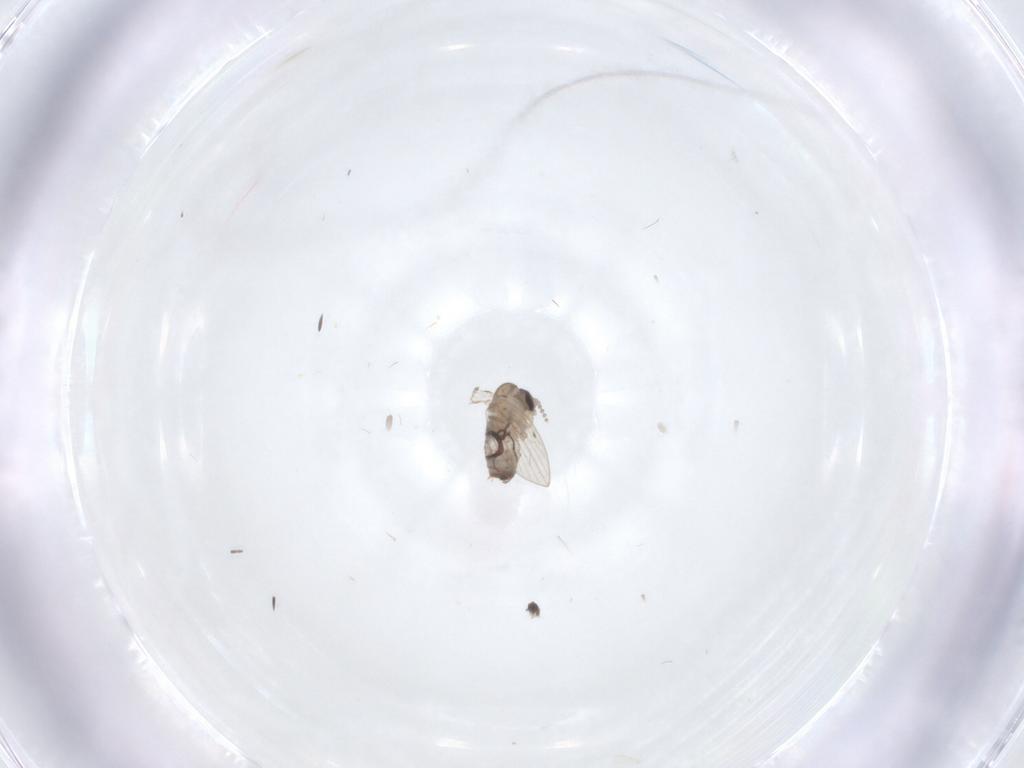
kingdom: Animalia
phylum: Arthropoda
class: Insecta
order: Diptera
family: Psychodidae
